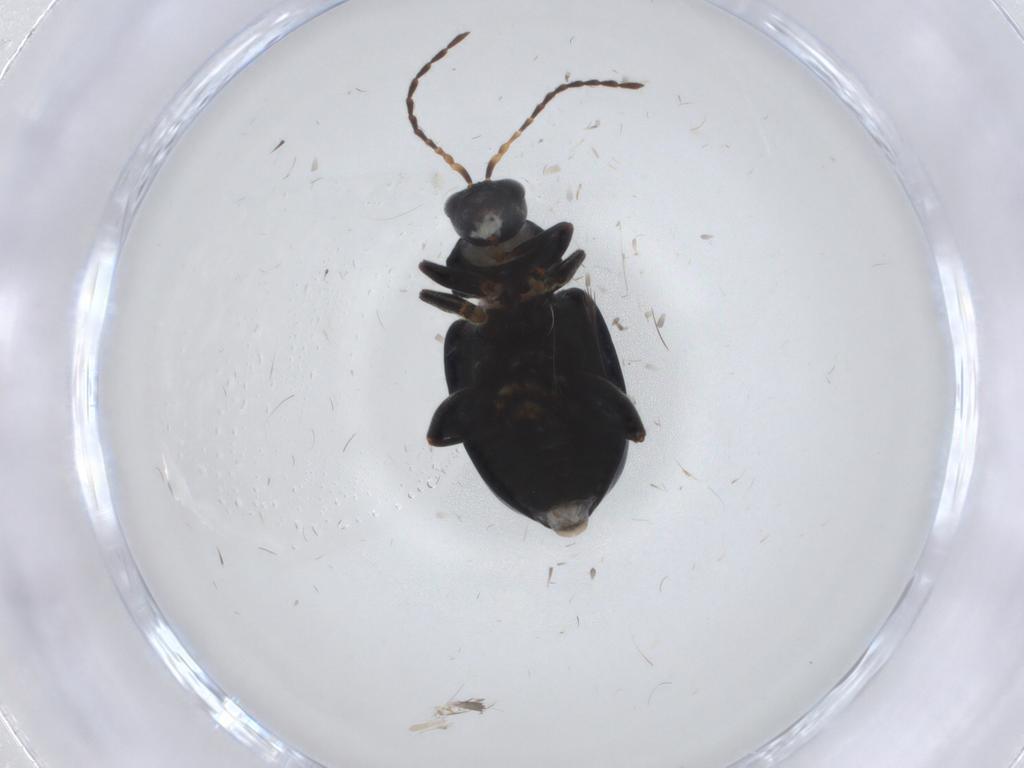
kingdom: Animalia
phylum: Arthropoda
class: Insecta
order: Coleoptera
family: Chrysomelidae
